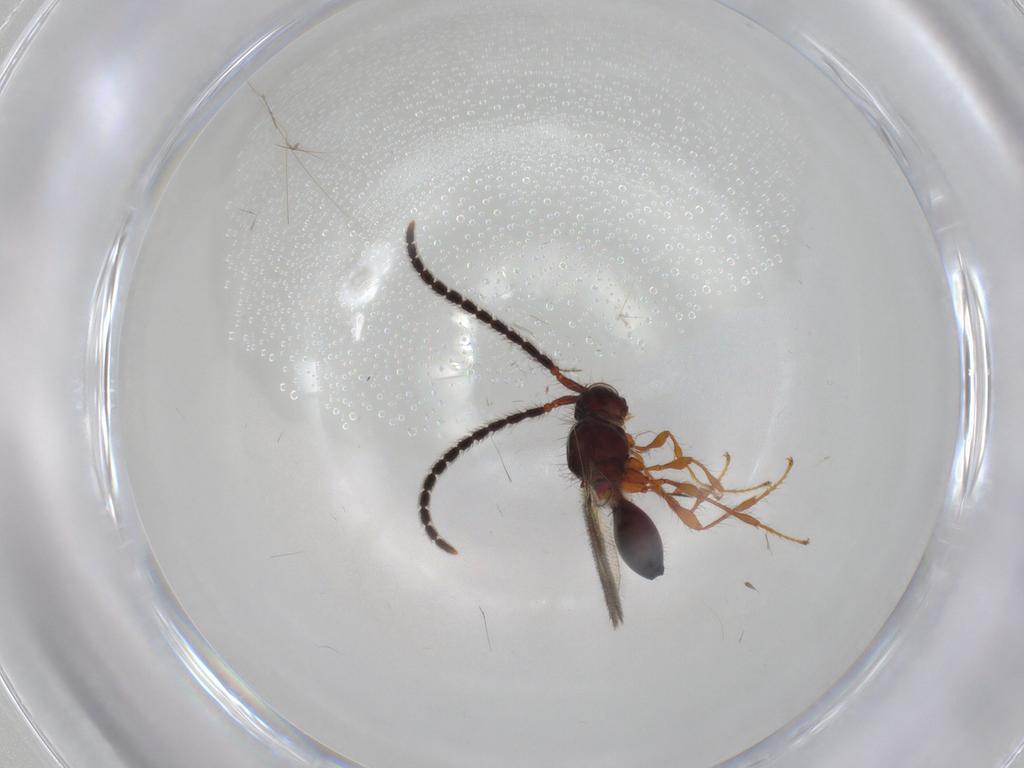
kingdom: Animalia
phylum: Arthropoda
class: Insecta
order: Hymenoptera
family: Diapriidae
